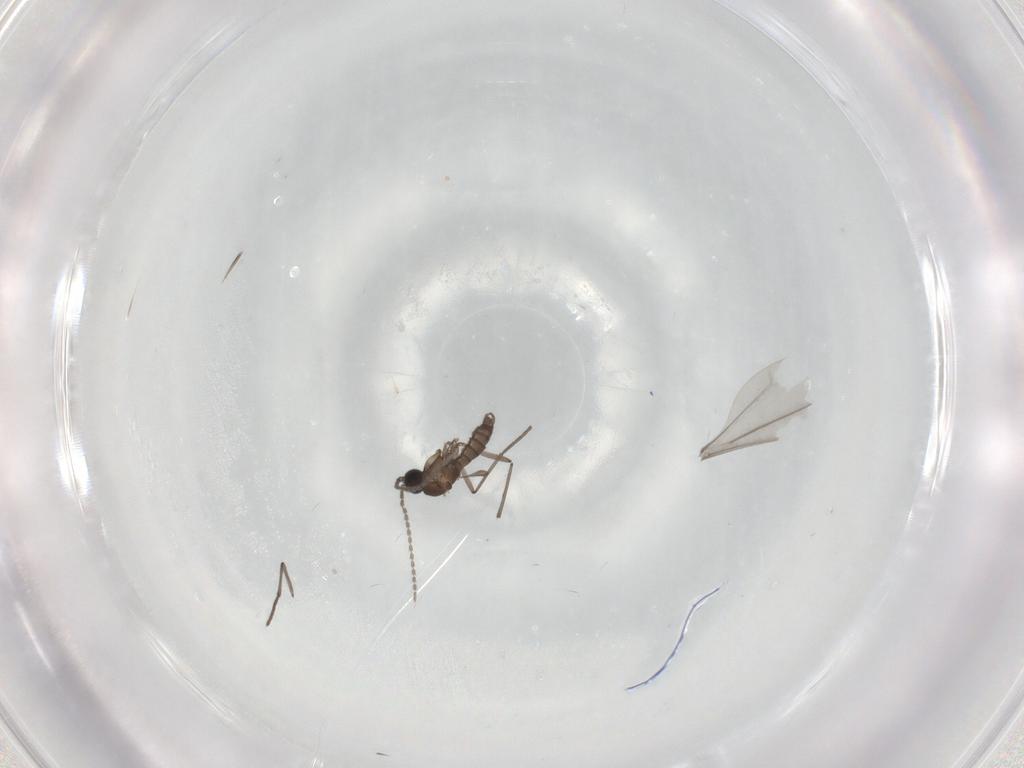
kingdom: Animalia
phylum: Arthropoda
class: Insecta
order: Diptera
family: Sciaridae
